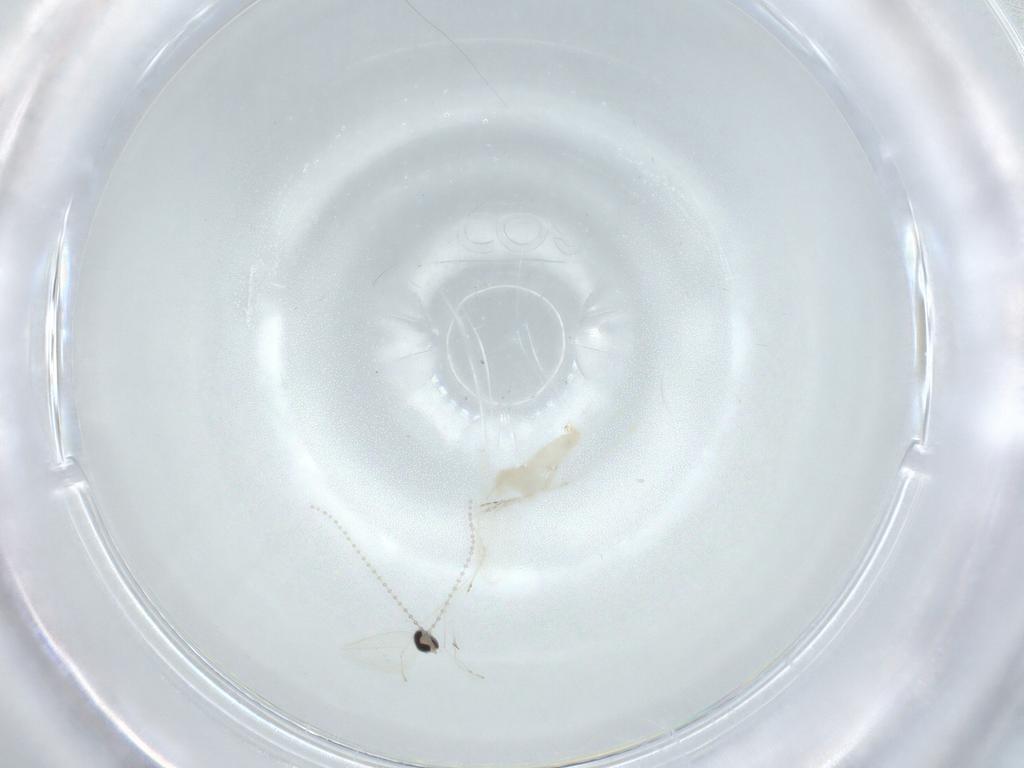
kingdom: Animalia
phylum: Arthropoda
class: Insecta
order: Diptera
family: Cecidomyiidae
